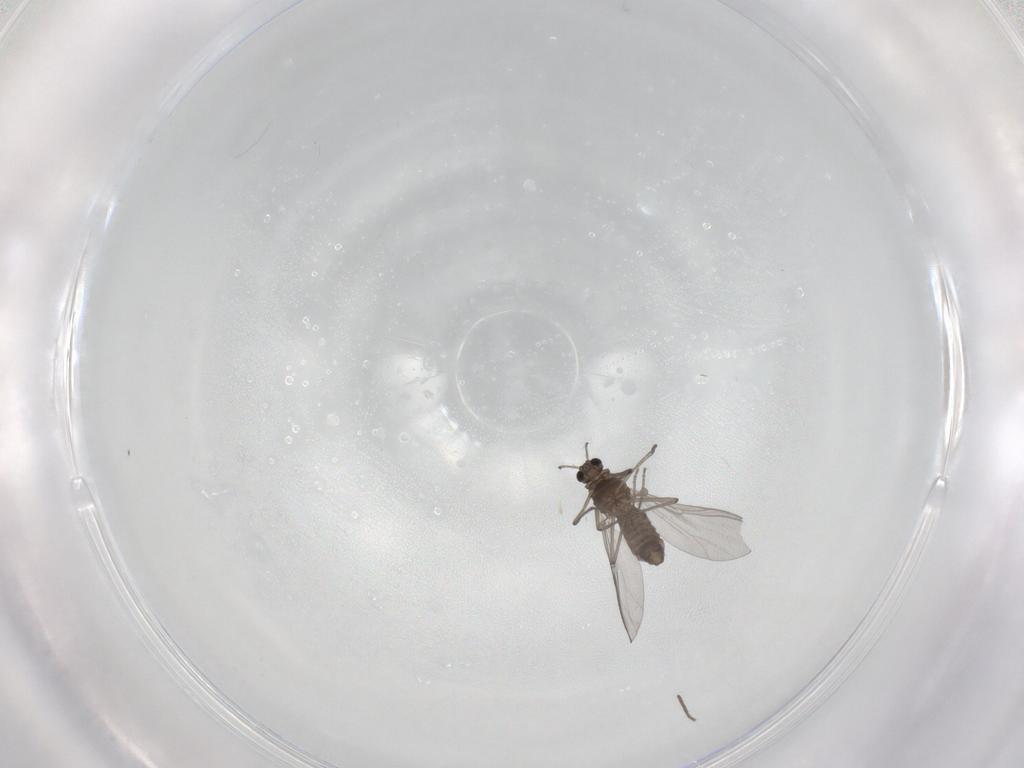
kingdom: Animalia
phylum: Arthropoda
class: Insecta
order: Diptera
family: Chironomidae
